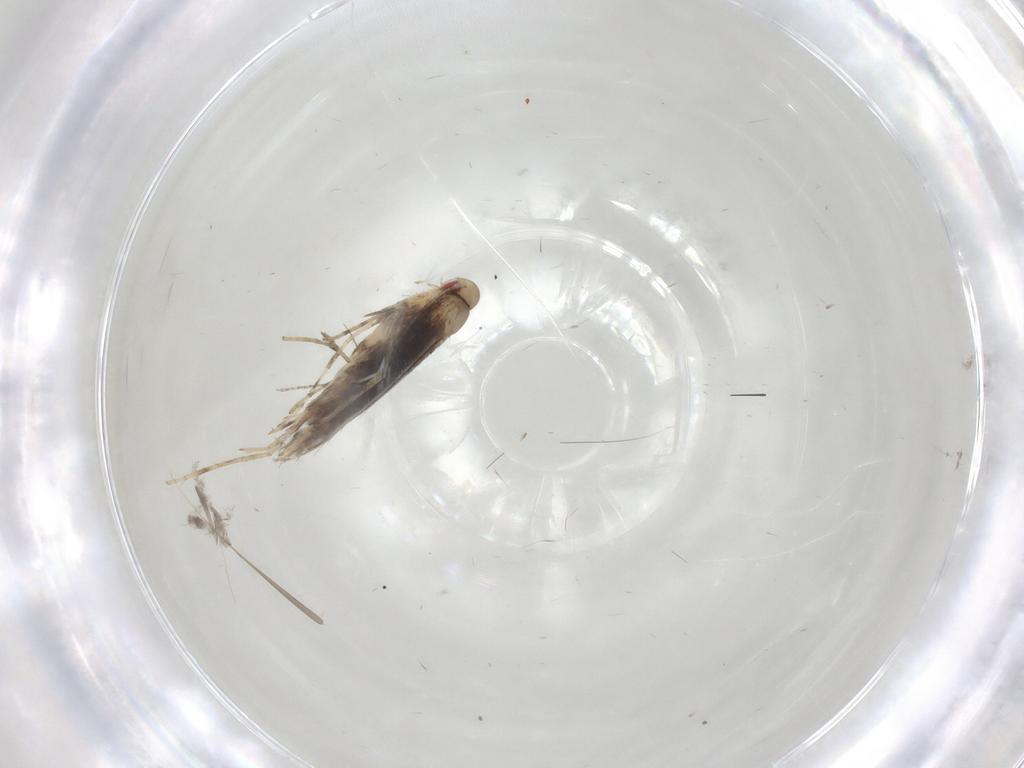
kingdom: Animalia
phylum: Arthropoda
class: Insecta
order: Lepidoptera
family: Gracillariidae
